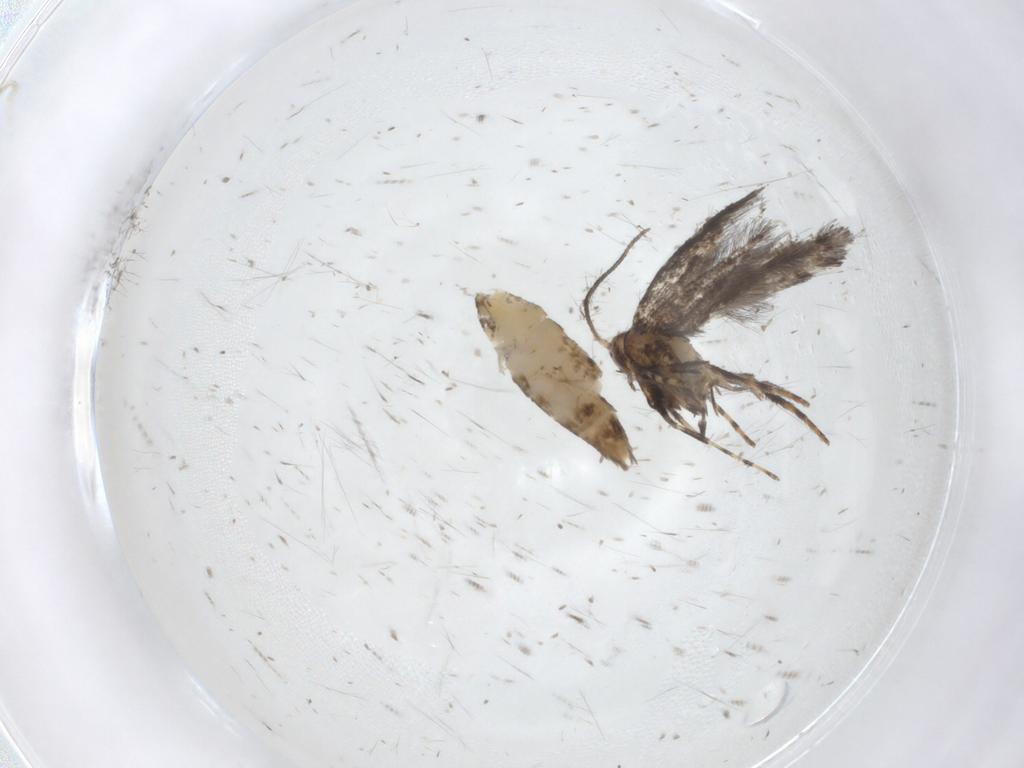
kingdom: Animalia
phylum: Arthropoda
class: Insecta
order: Lepidoptera
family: Gracillariidae
